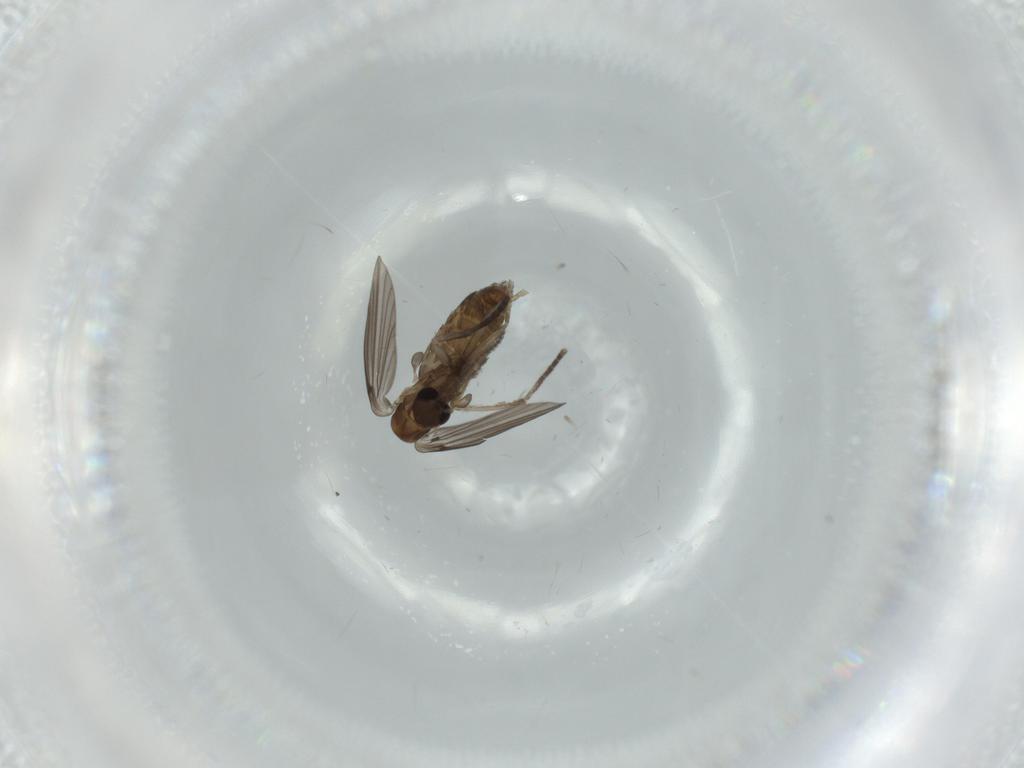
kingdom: Animalia
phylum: Arthropoda
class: Insecta
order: Diptera
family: Psychodidae
